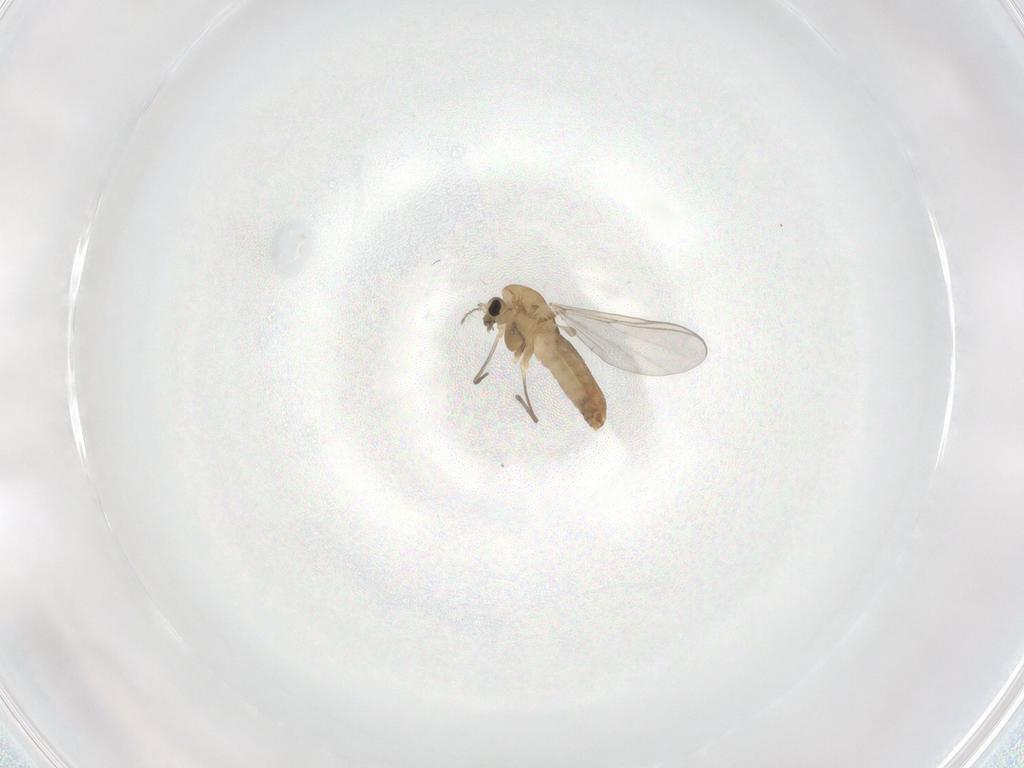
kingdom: Animalia
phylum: Arthropoda
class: Insecta
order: Diptera
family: Chironomidae
